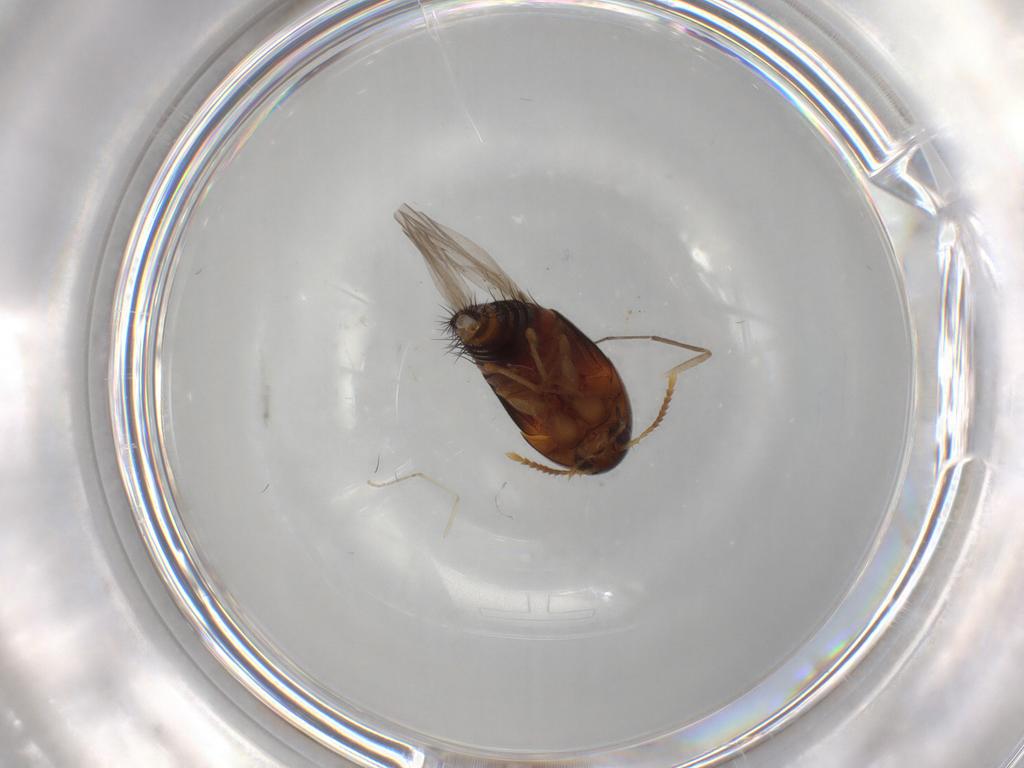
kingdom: Animalia
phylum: Arthropoda
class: Insecta
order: Coleoptera
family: Staphylinidae
